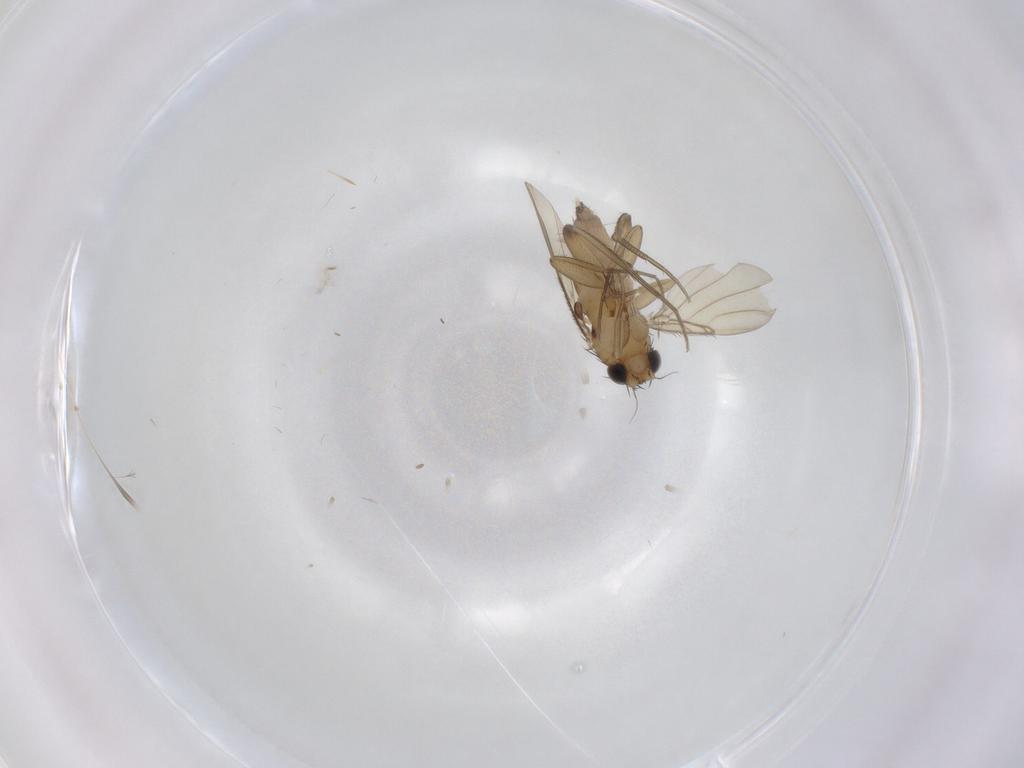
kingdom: Animalia
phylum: Arthropoda
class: Insecta
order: Diptera
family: Phoridae
